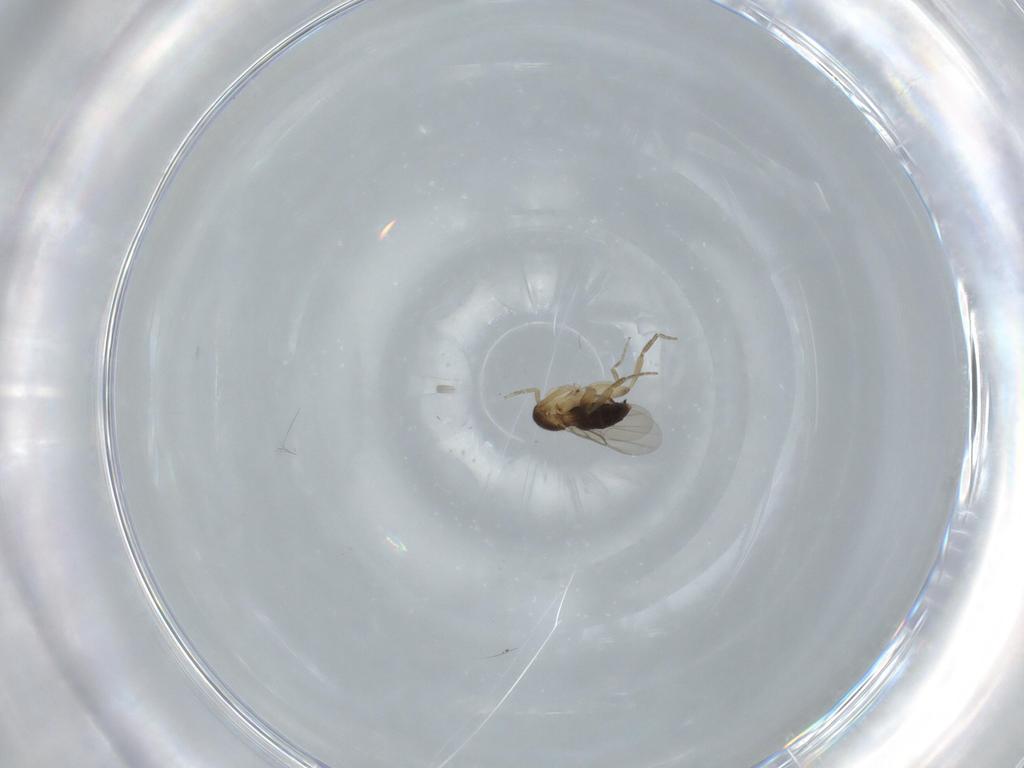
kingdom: Animalia
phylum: Arthropoda
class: Insecta
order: Diptera
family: Phoridae
